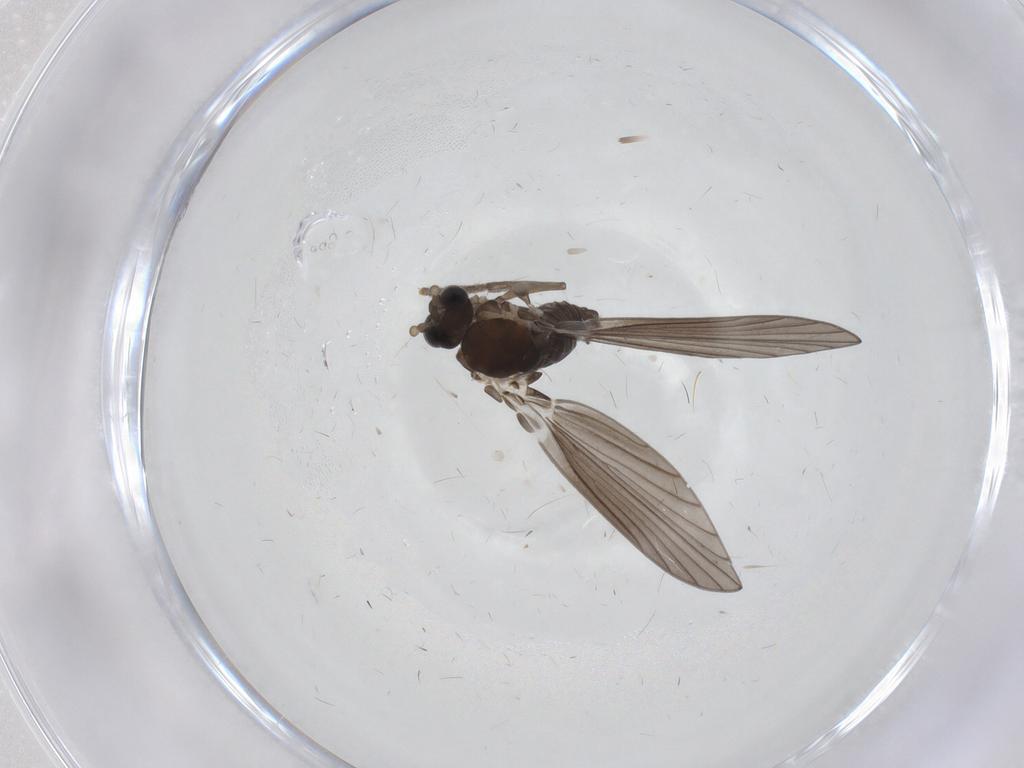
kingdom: Animalia
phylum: Arthropoda
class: Insecta
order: Diptera
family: Psychodidae
